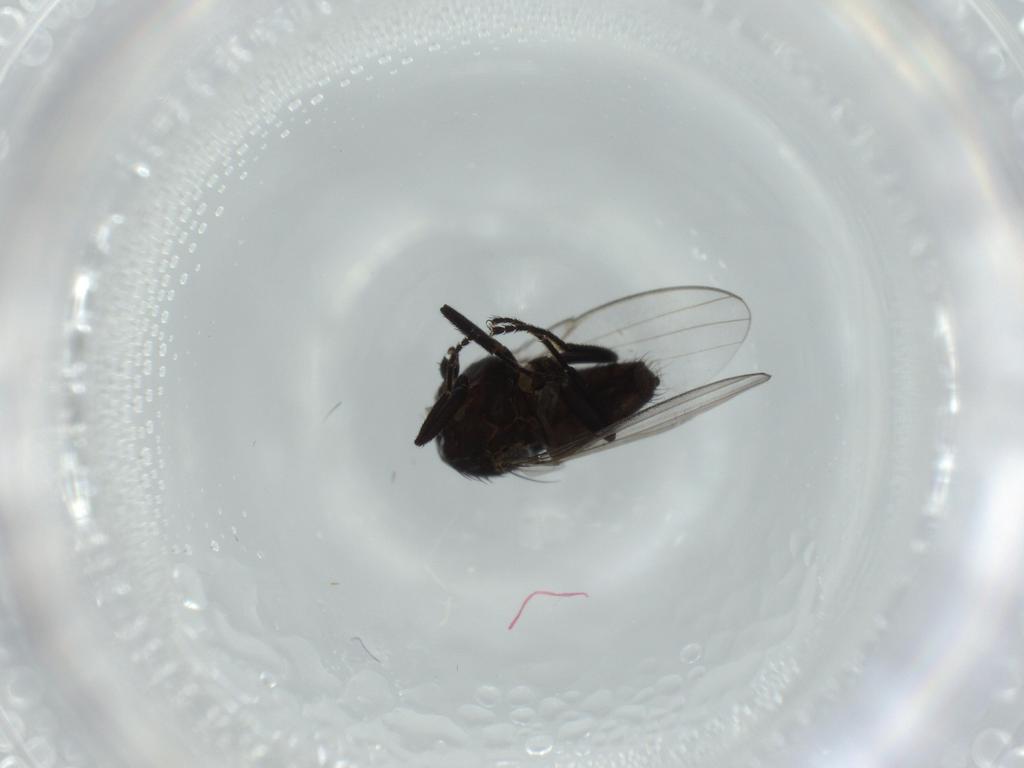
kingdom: Animalia
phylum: Arthropoda
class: Insecta
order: Diptera
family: Milichiidae
